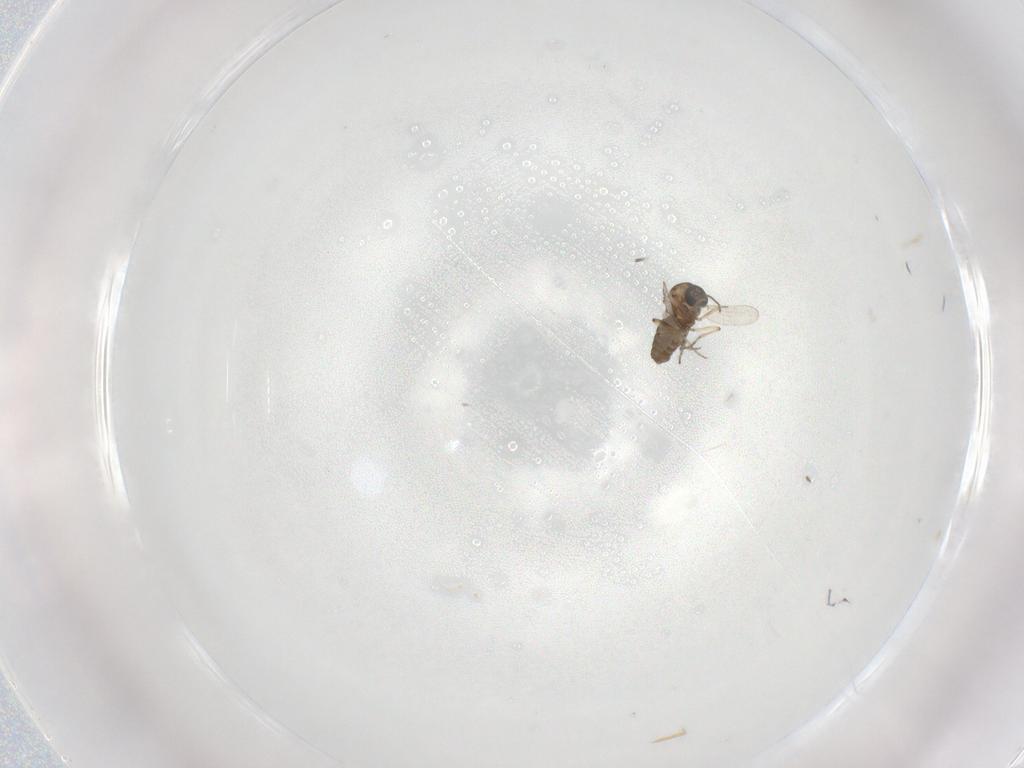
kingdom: Animalia
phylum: Arthropoda
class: Insecta
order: Diptera
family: Ceratopogonidae
